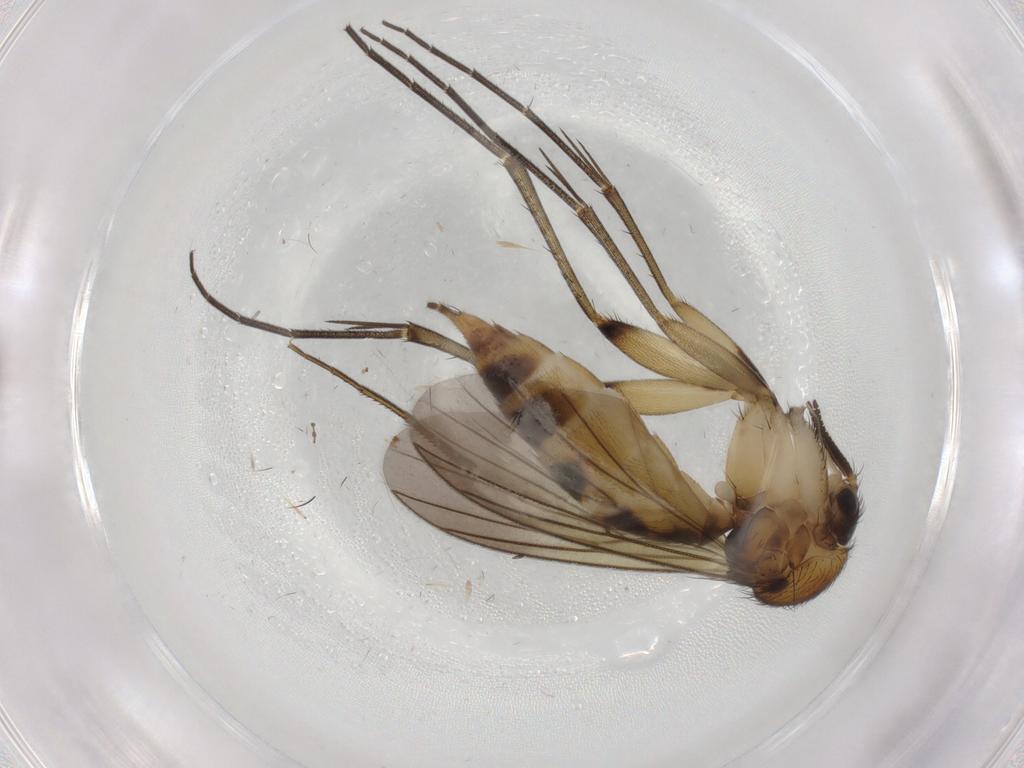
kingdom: Animalia
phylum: Arthropoda
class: Insecta
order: Diptera
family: Mycetophilidae
